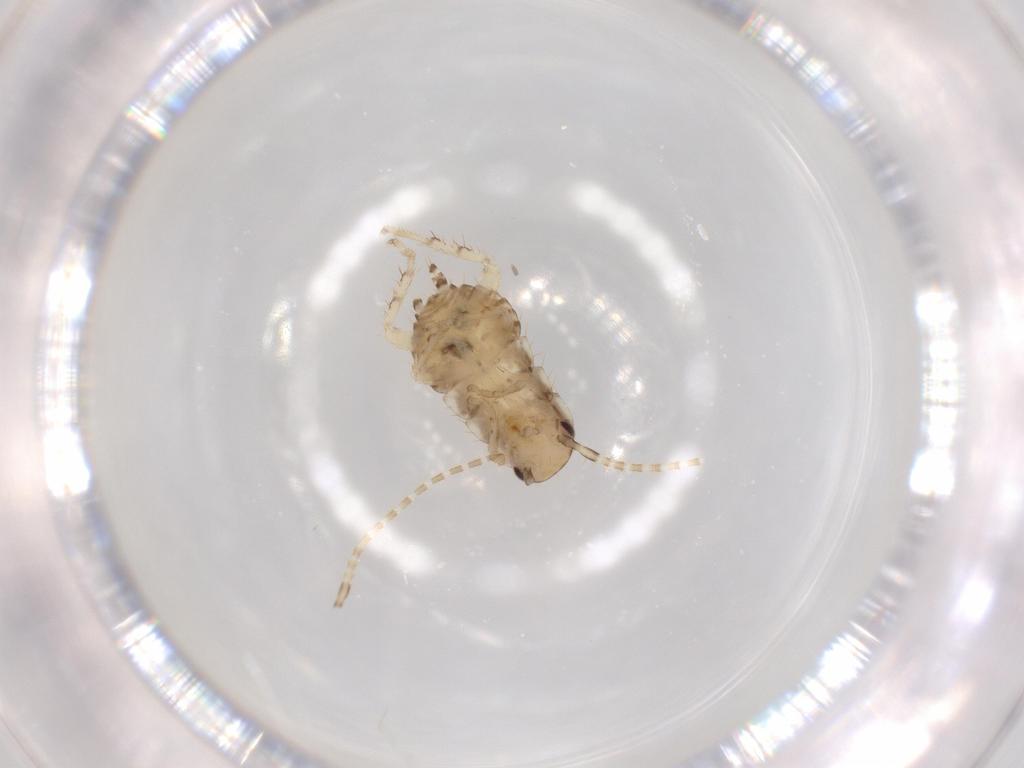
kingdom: Animalia
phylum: Arthropoda
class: Insecta
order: Blattodea
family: Ectobiidae
